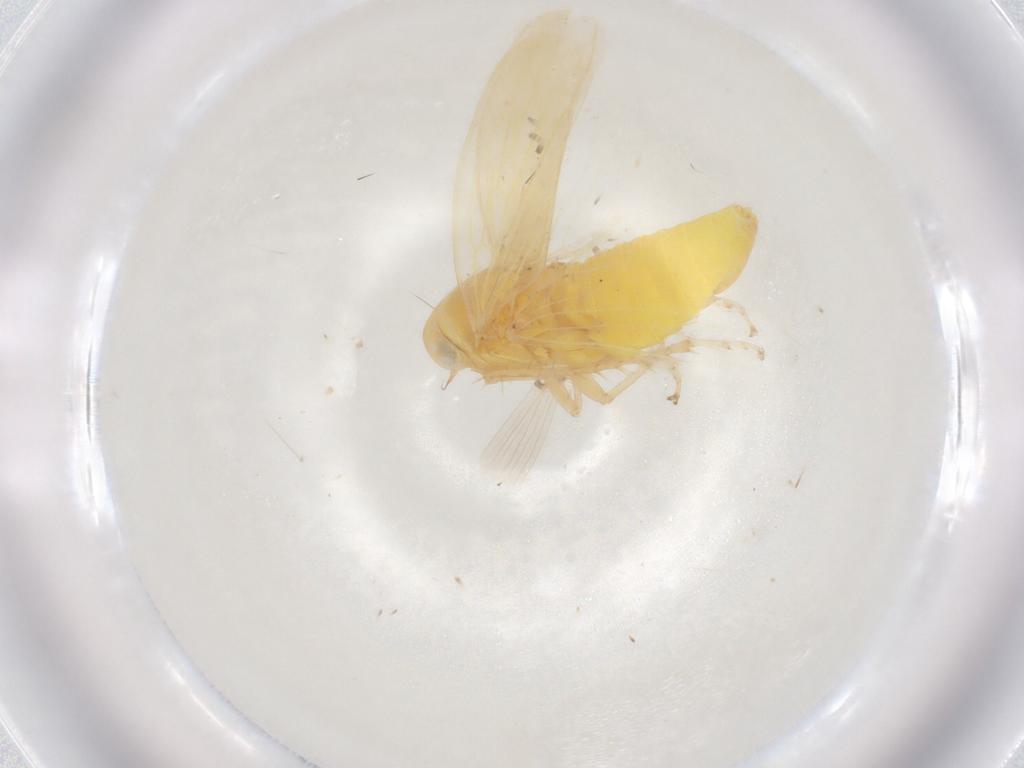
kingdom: Animalia
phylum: Arthropoda
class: Insecta
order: Hemiptera
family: Cicadellidae
